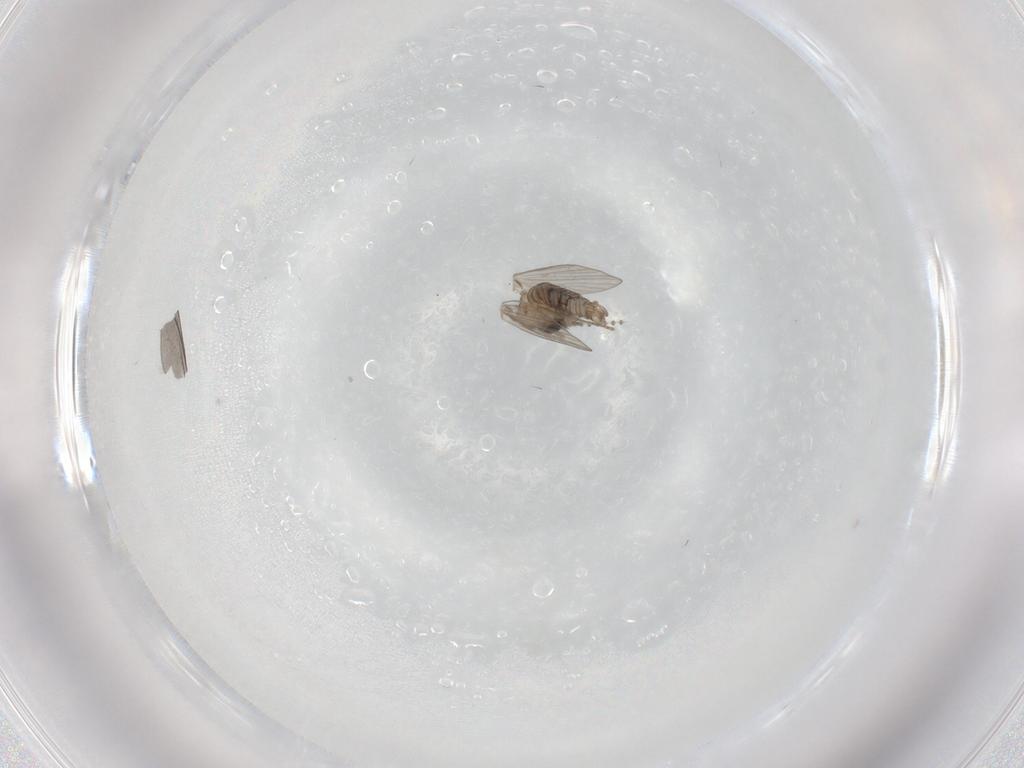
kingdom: Animalia
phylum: Arthropoda
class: Insecta
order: Diptera
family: Psychodidae
